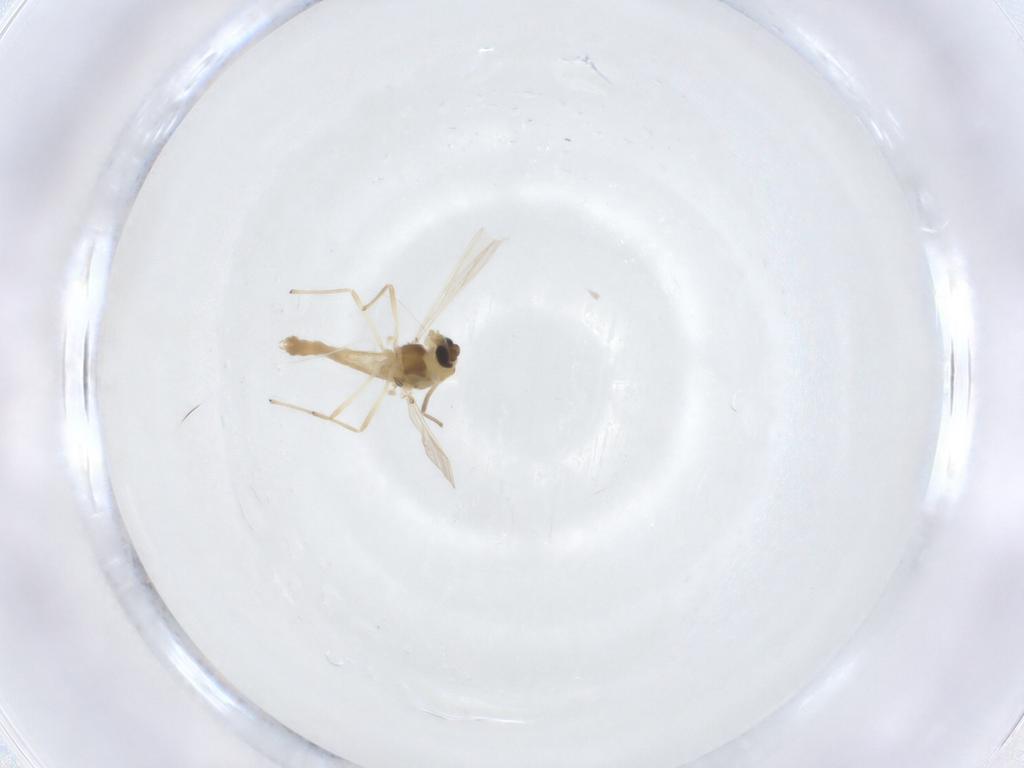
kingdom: Animalia
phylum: Arthropoda
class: Insecta
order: Diptera
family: Chironomidae
